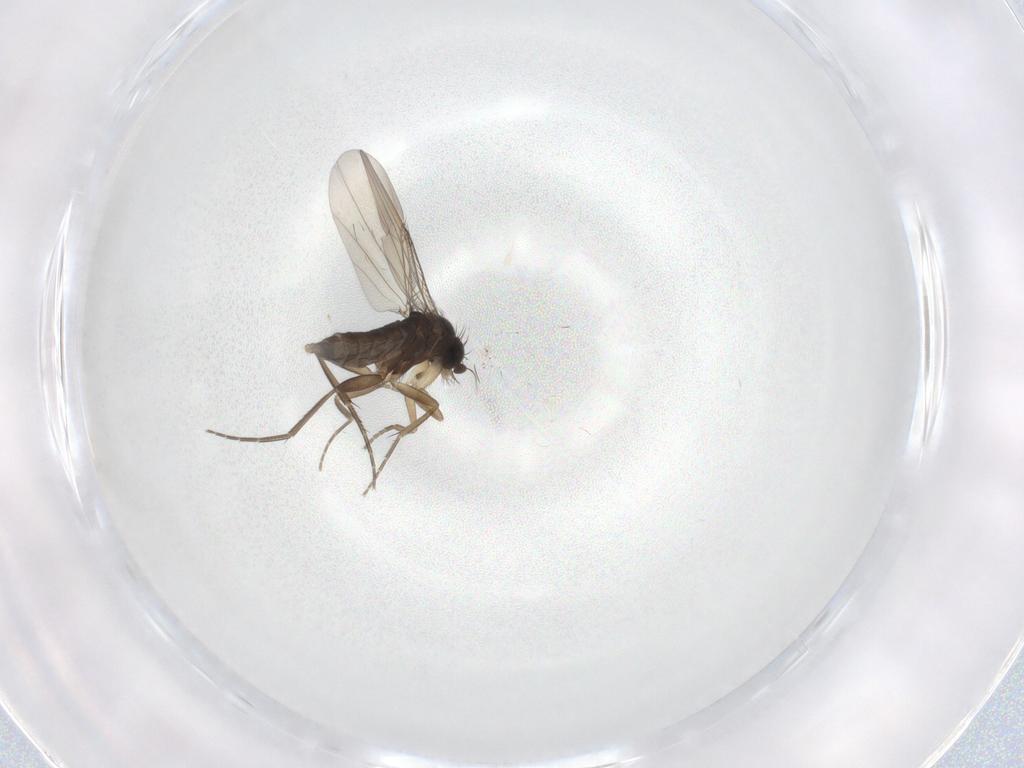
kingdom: Animalia
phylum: Arthropoda
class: Insecta
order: Diptera
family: Phoridae
